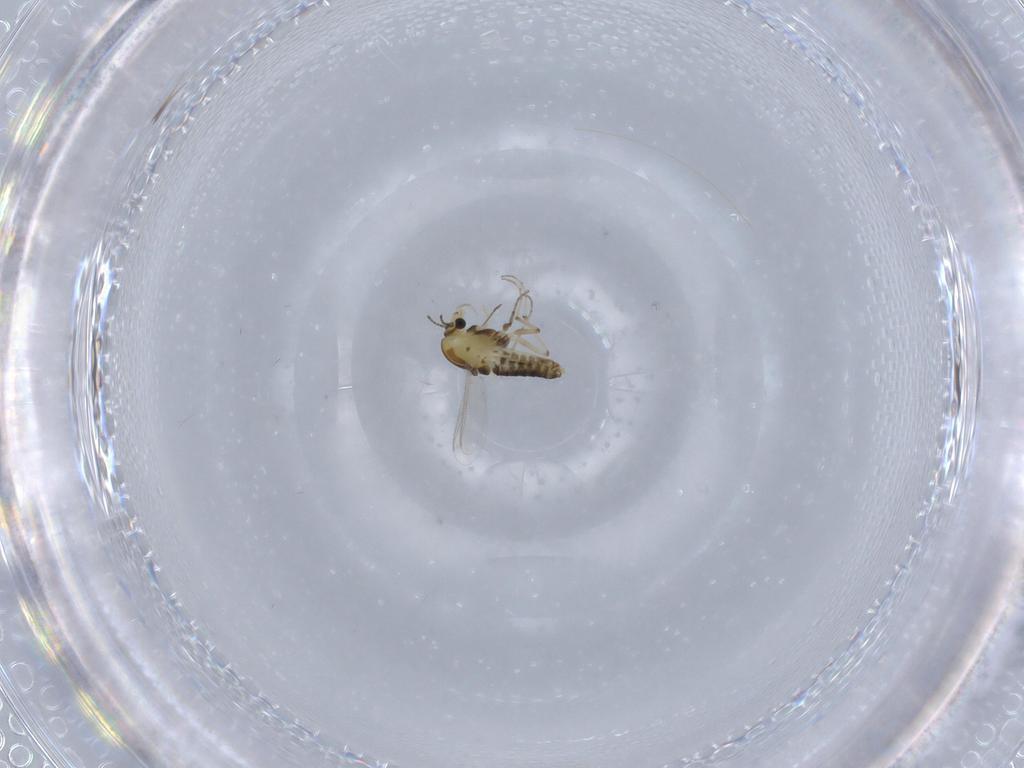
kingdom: Animalia
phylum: Arthropoda
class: Insecta
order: Diptera
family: Chironomidae
